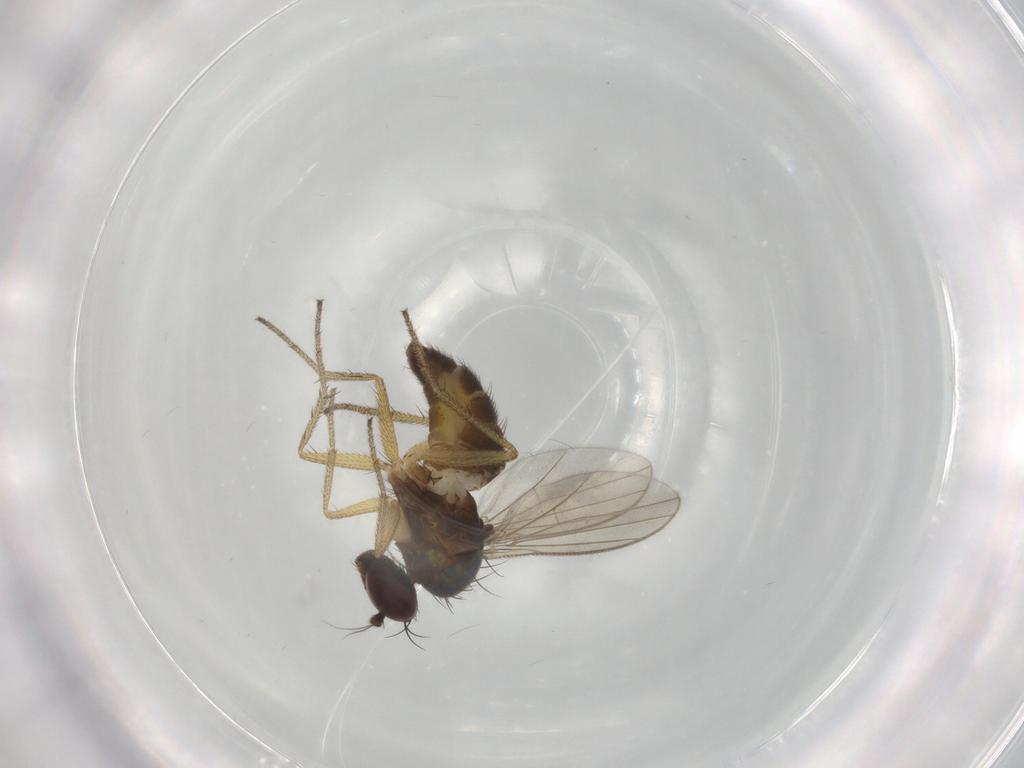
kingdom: Animalia
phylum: Arthropoda
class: Insecta
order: Diptera
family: Dolichopodidae
